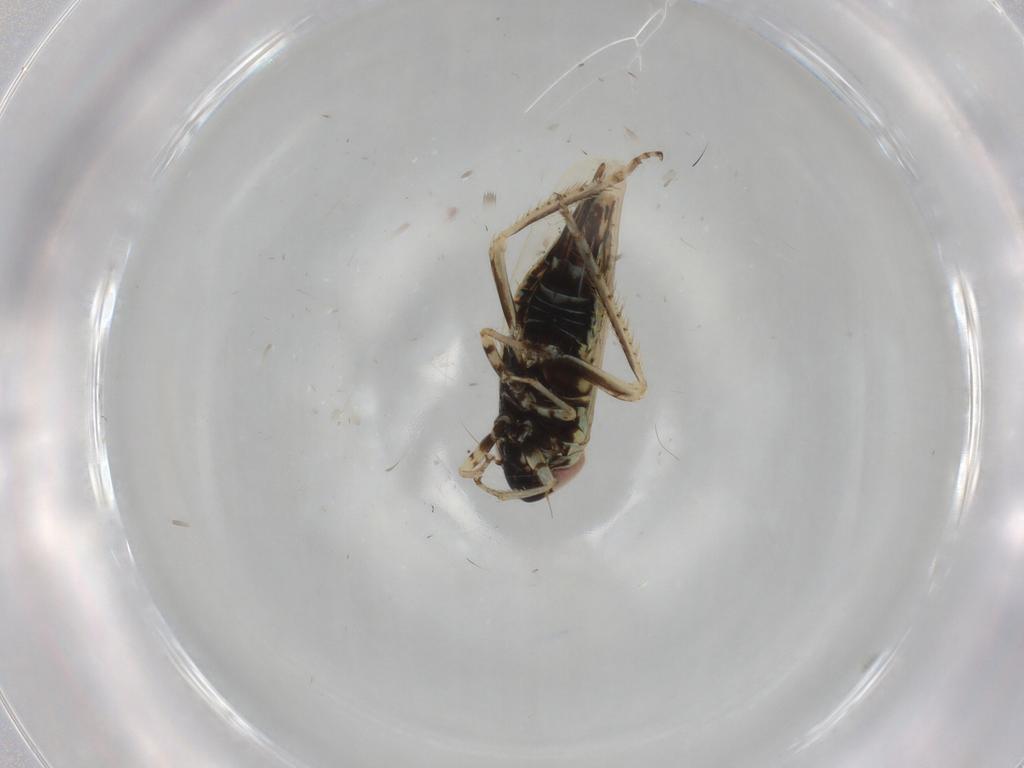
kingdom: Animalia
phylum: Arthropoda
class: Insecta
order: Hemiptera
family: Cicadellidae
